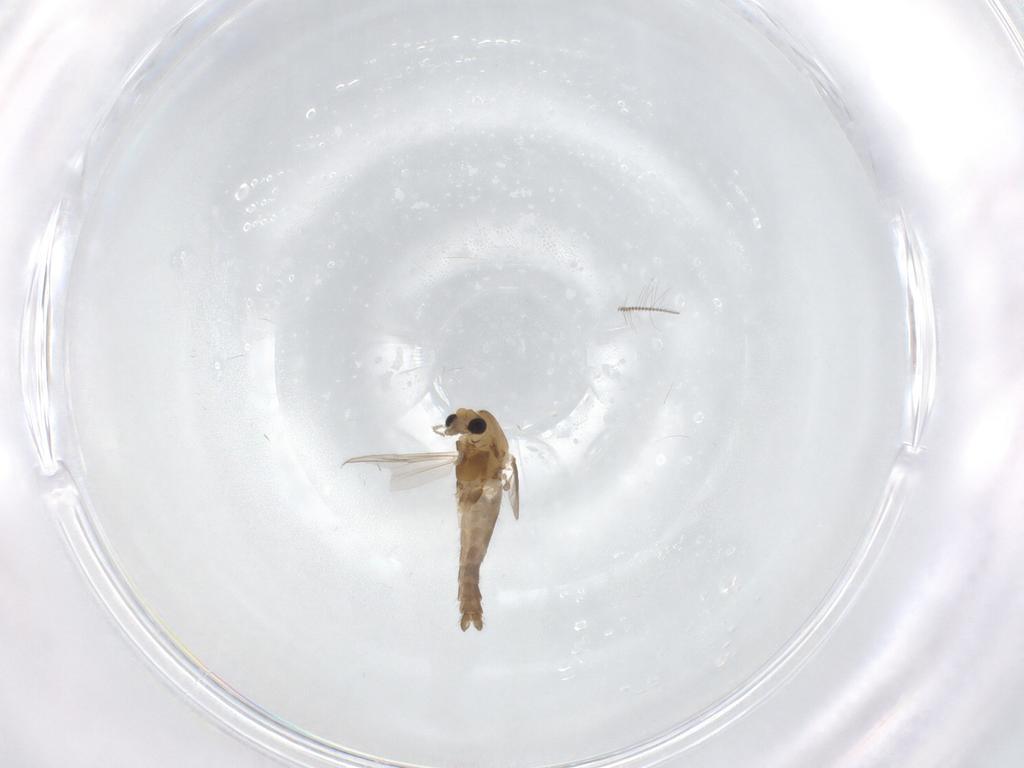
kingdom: Animalia
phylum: Arthropoda
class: Insecta
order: Diptera
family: Chironomidae
